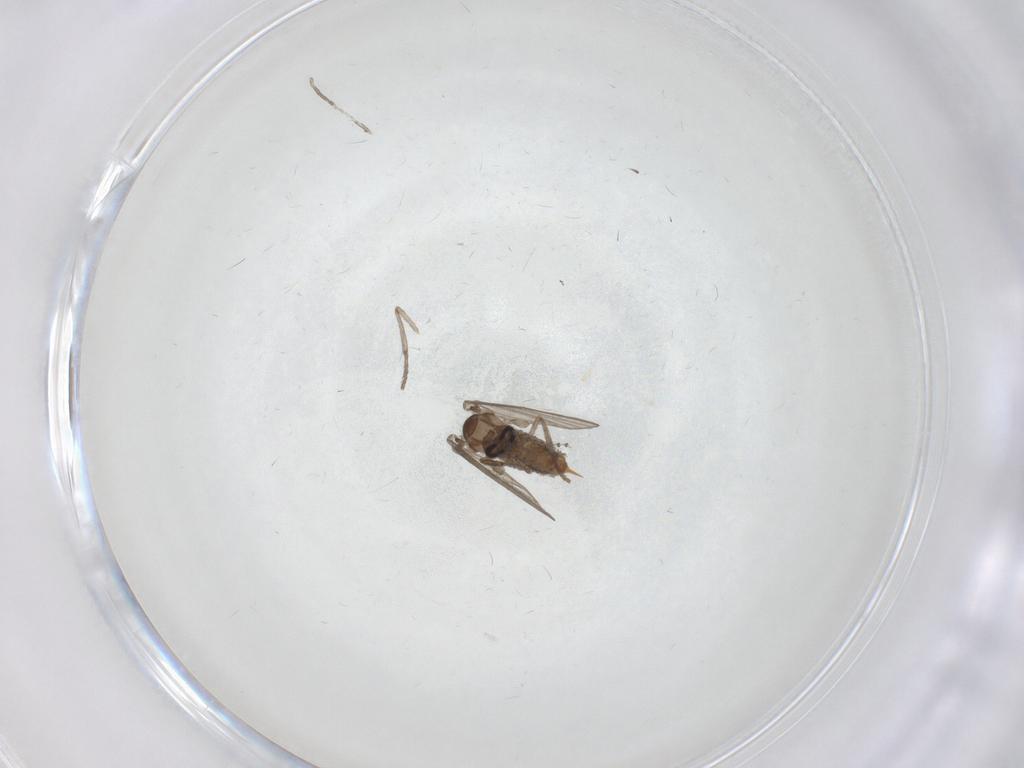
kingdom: Animalia
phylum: Arthropoda
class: Insecta
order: Diptera
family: Psychodidae
